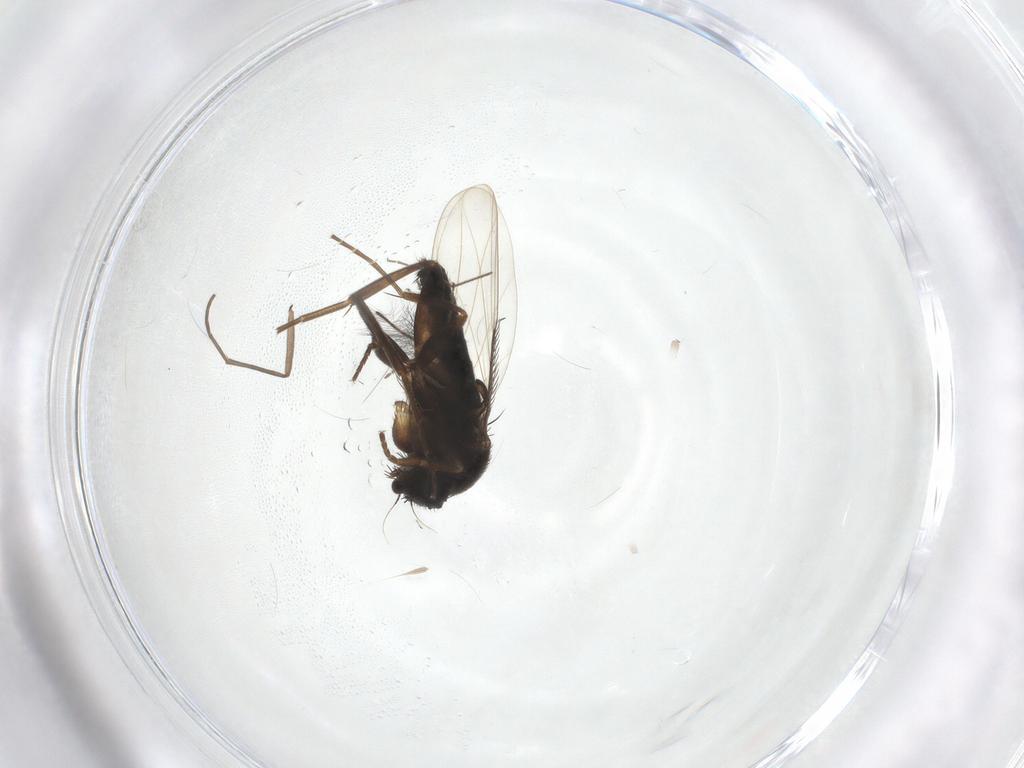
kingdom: Animalia
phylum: Arthropoda
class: Insecta
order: Diptera
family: Phoridae
